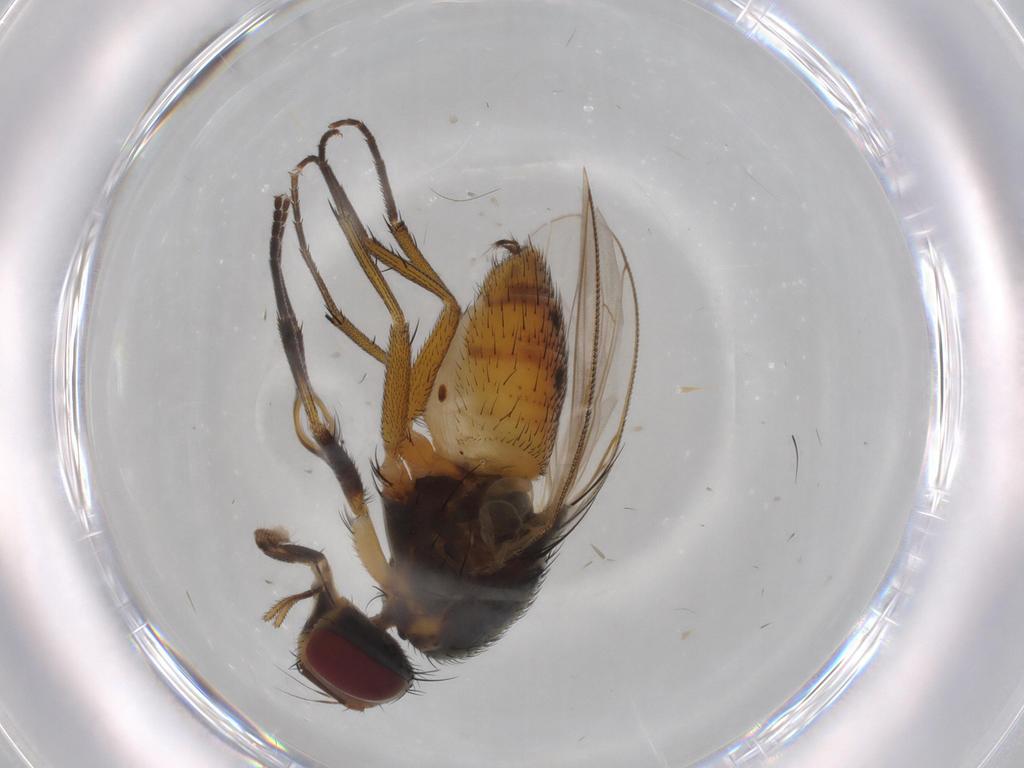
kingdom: Animalia
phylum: Arthropoda
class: Insecta
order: Diptera
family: Muscidae
